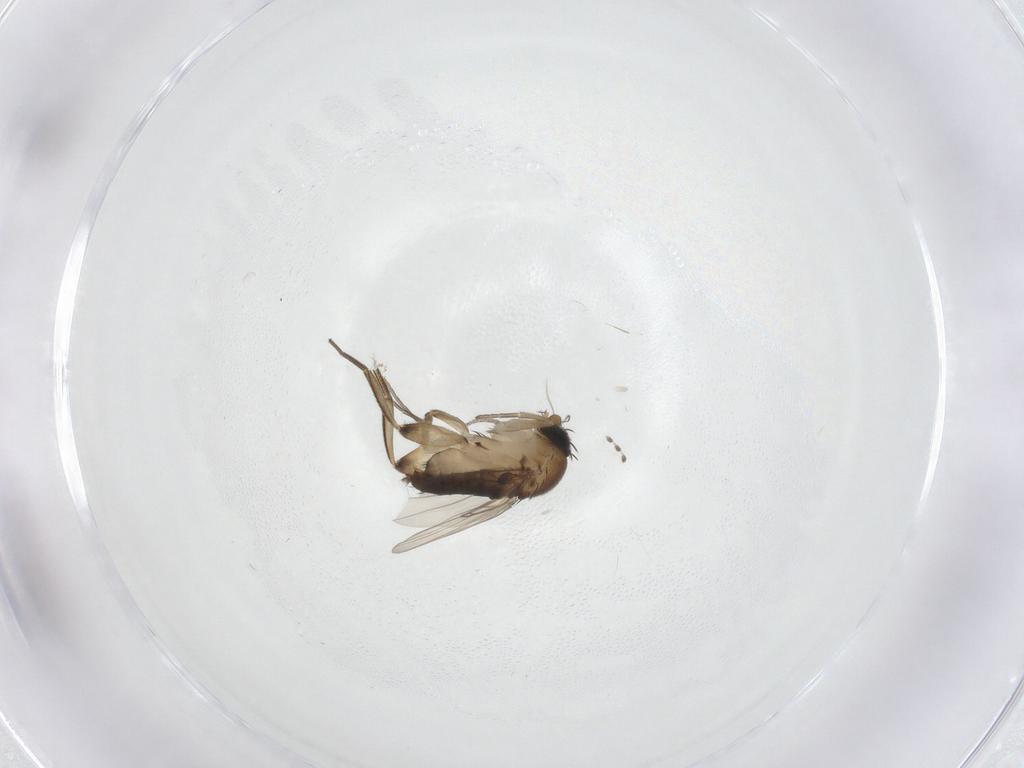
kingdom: Animalia
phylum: Arthropoda
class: Insecta
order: Diptera
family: Phoridae
